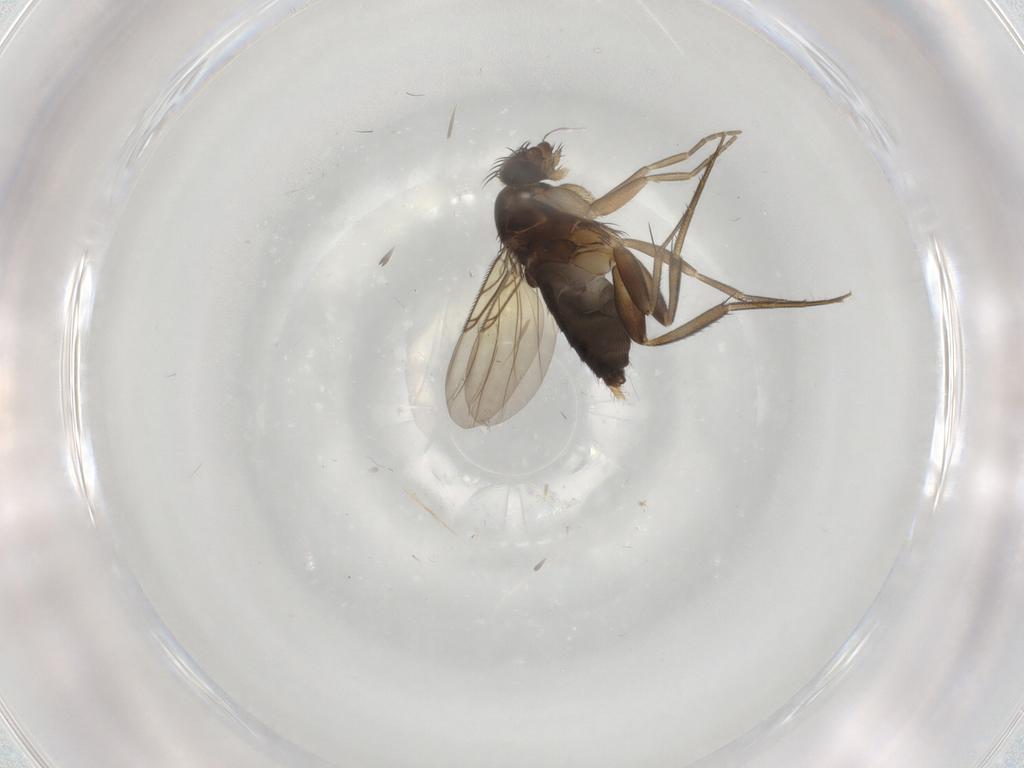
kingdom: Animalia
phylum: Arthropoda
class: Insecta
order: Diptera
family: Phoridae
